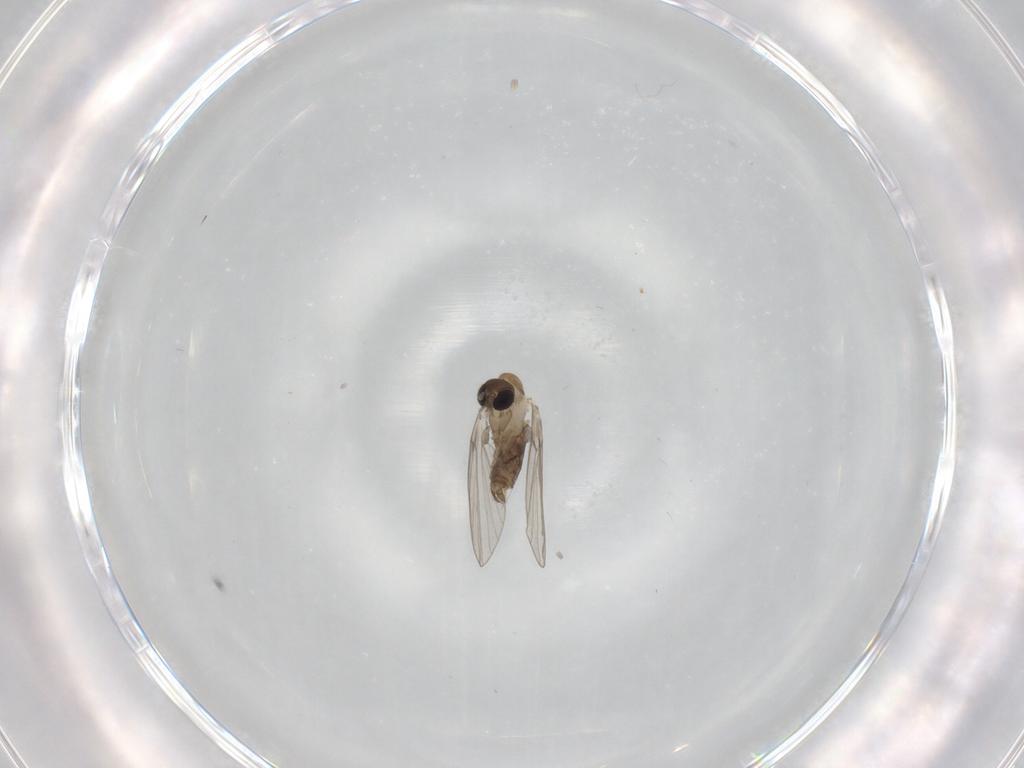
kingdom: Animalia
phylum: Arthropoda
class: Insecta
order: Diptera
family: Psychodidae
